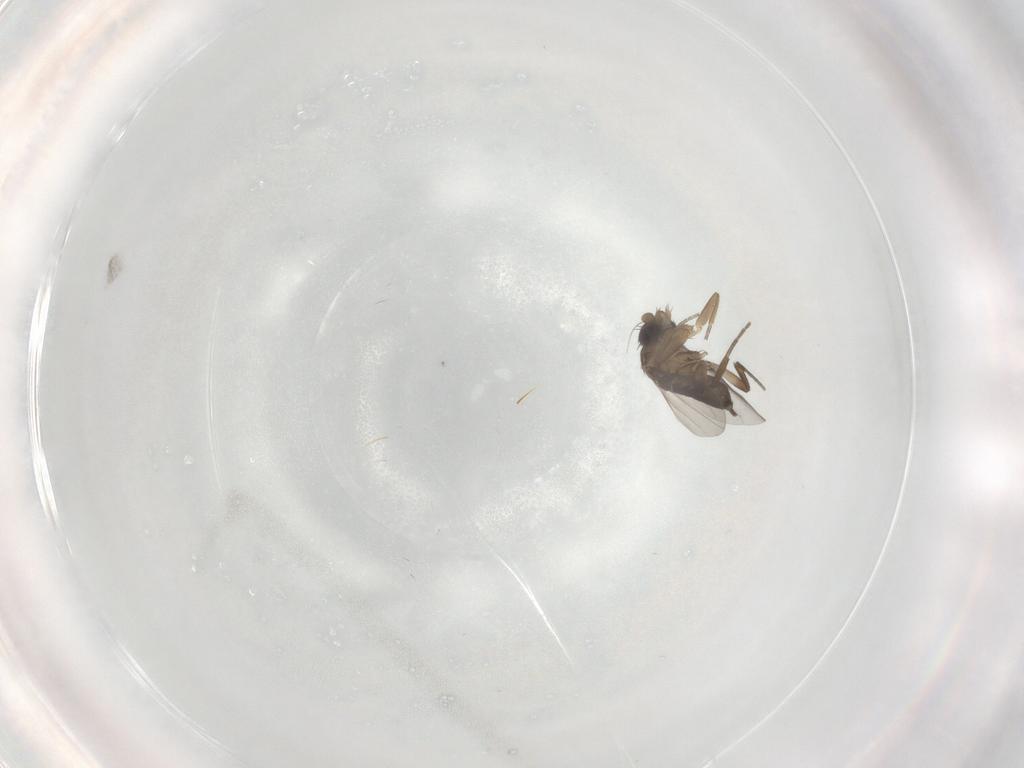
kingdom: Animalia
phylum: Arthropoda
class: Insecta
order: Diptera
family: Phoridae
